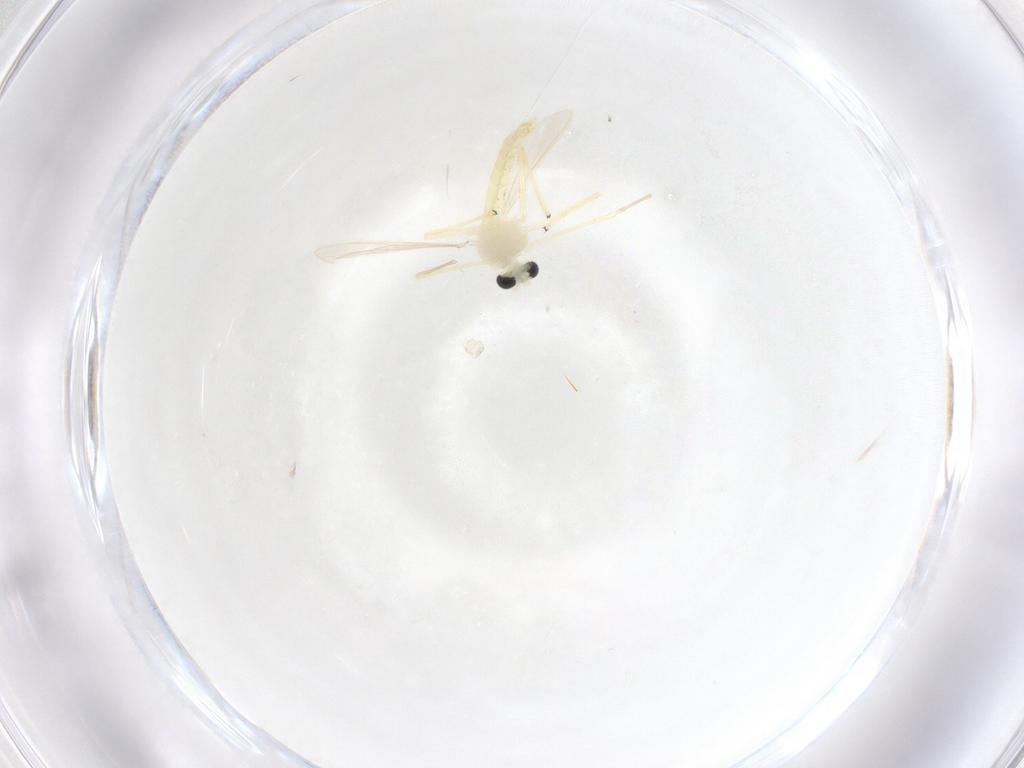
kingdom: Animalia
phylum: Arthropoda
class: Insecta
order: Diptera
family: Chironomidae
